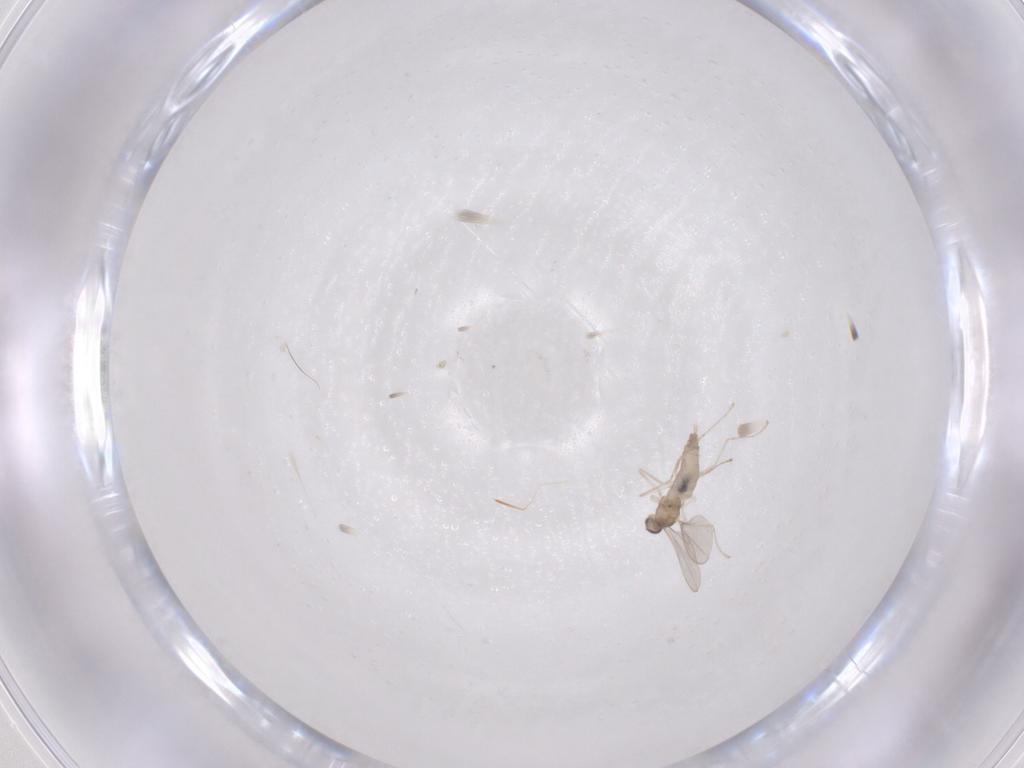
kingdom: Animalia
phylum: Arthropoda
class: Insecta
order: Diptera
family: Cecidomyiidae
